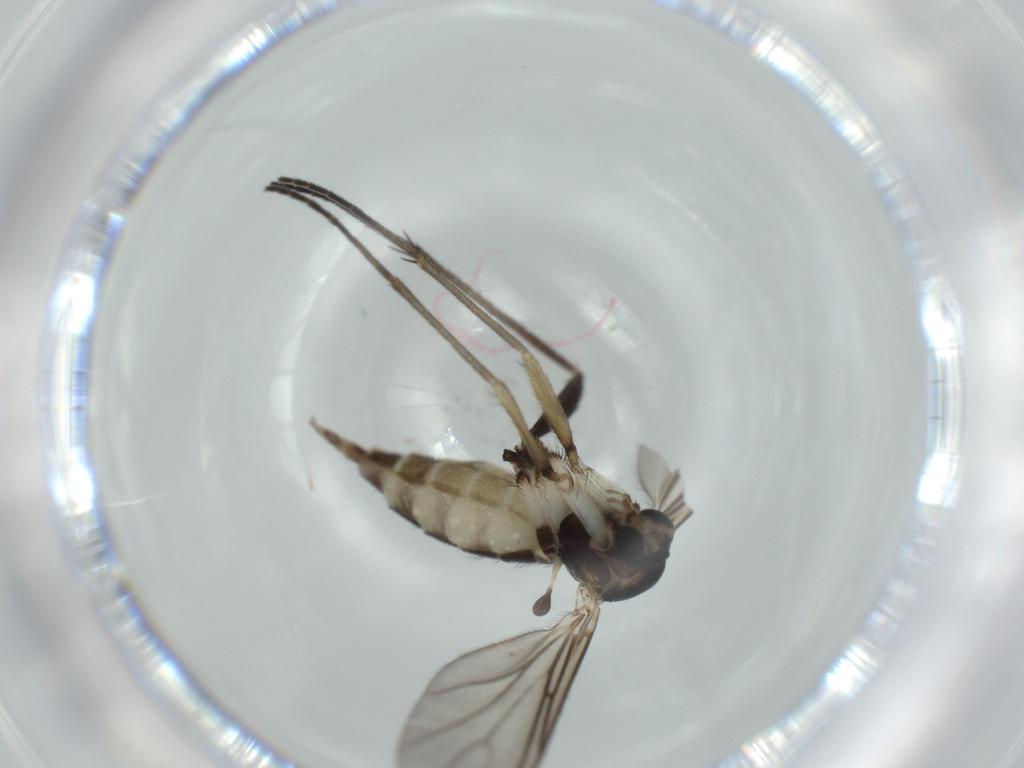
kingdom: Animalia
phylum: Arthropoda
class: Insecta
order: Diptera
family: Sciaridae
